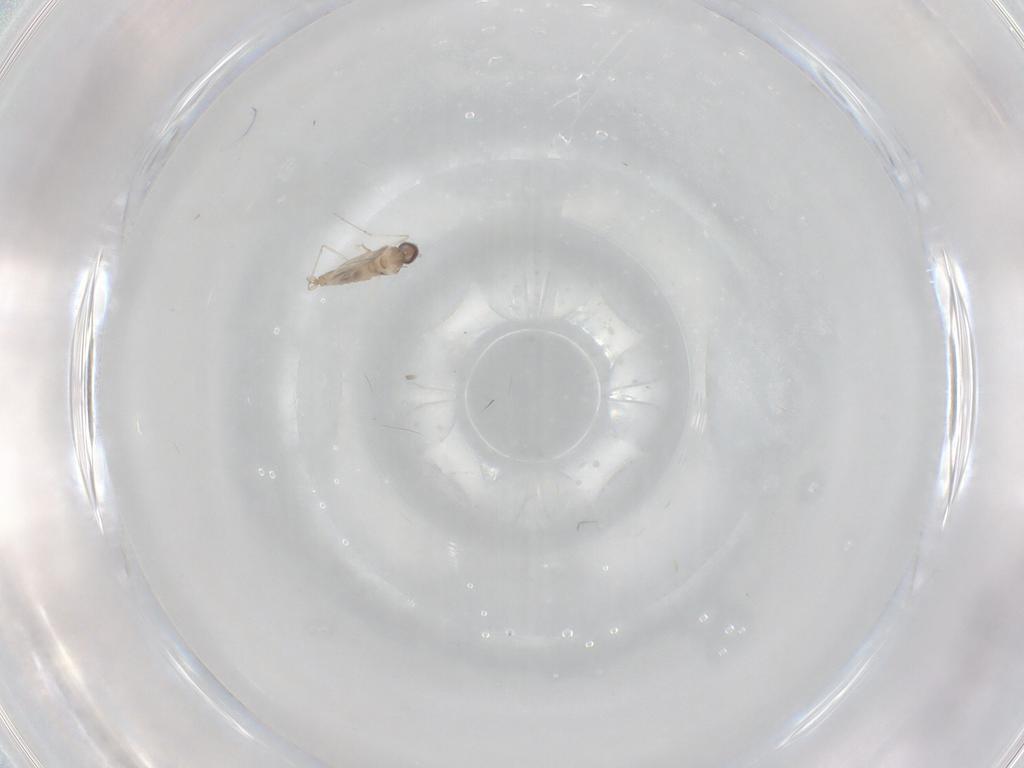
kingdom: Animalia
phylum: Arthropoda
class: Insecta
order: Diptera
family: Cecidomyiidae
